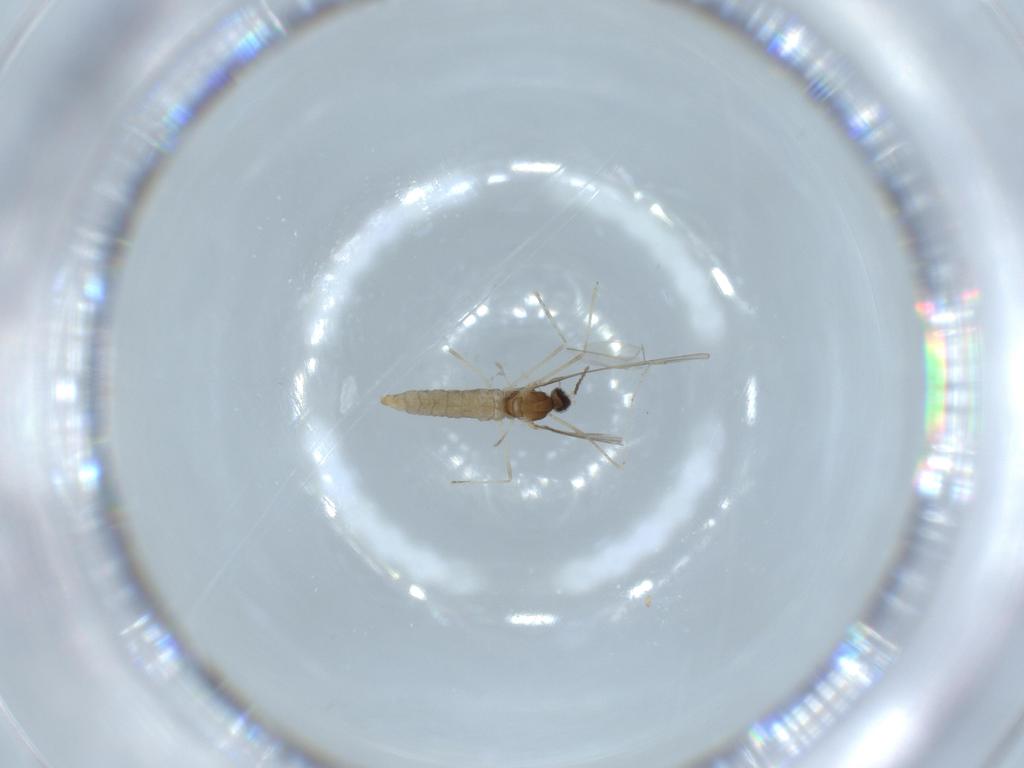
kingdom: Animalia
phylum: Arthropoda
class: Insecta
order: Diptera
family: Cecidomyiidae
